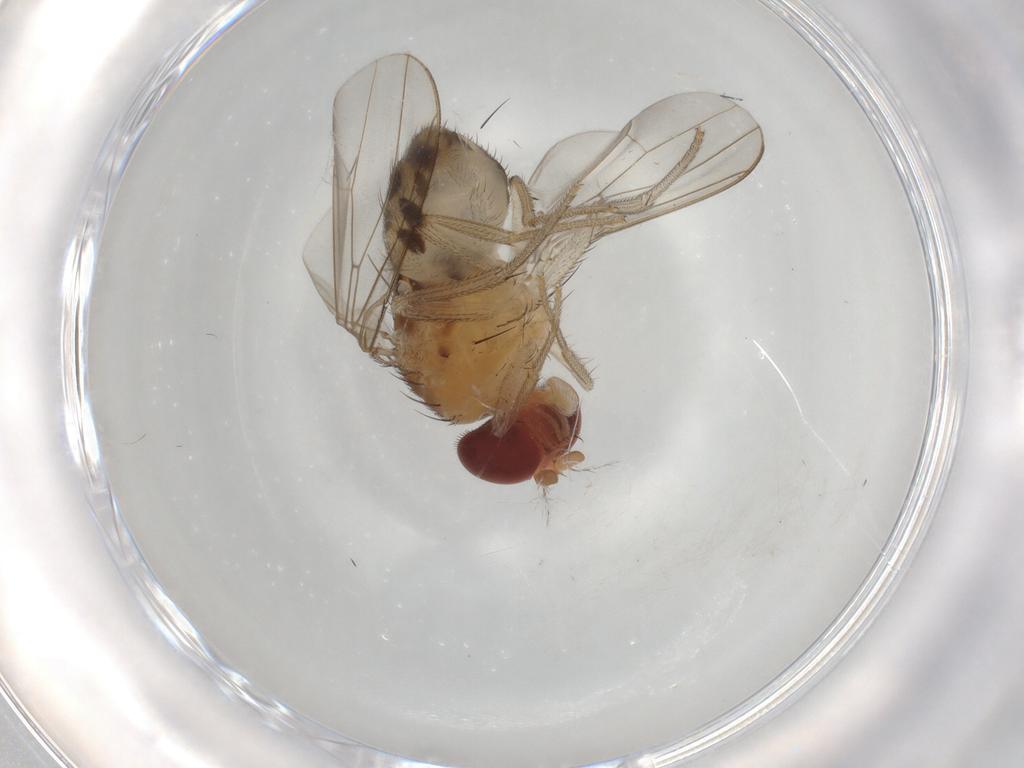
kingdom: Animalia
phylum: Arthropoda
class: Insecta
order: Diptera
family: Drosophilidae
